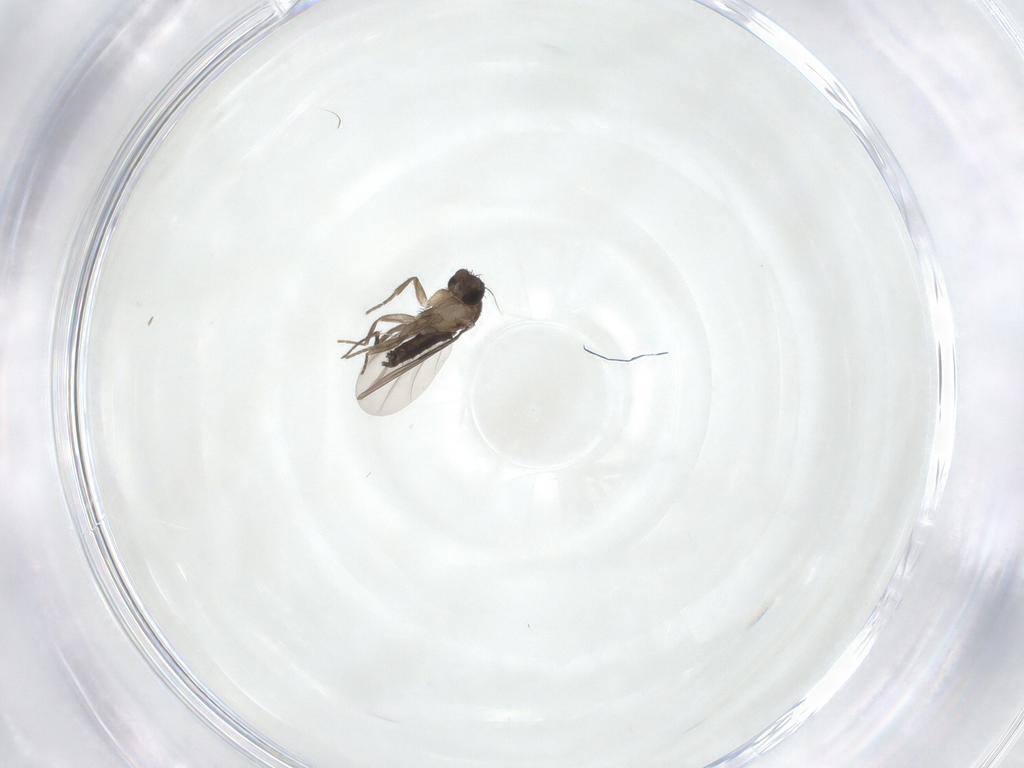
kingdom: Animalia
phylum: Arthropoda
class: Insecta
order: Diptera
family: Phoridae
